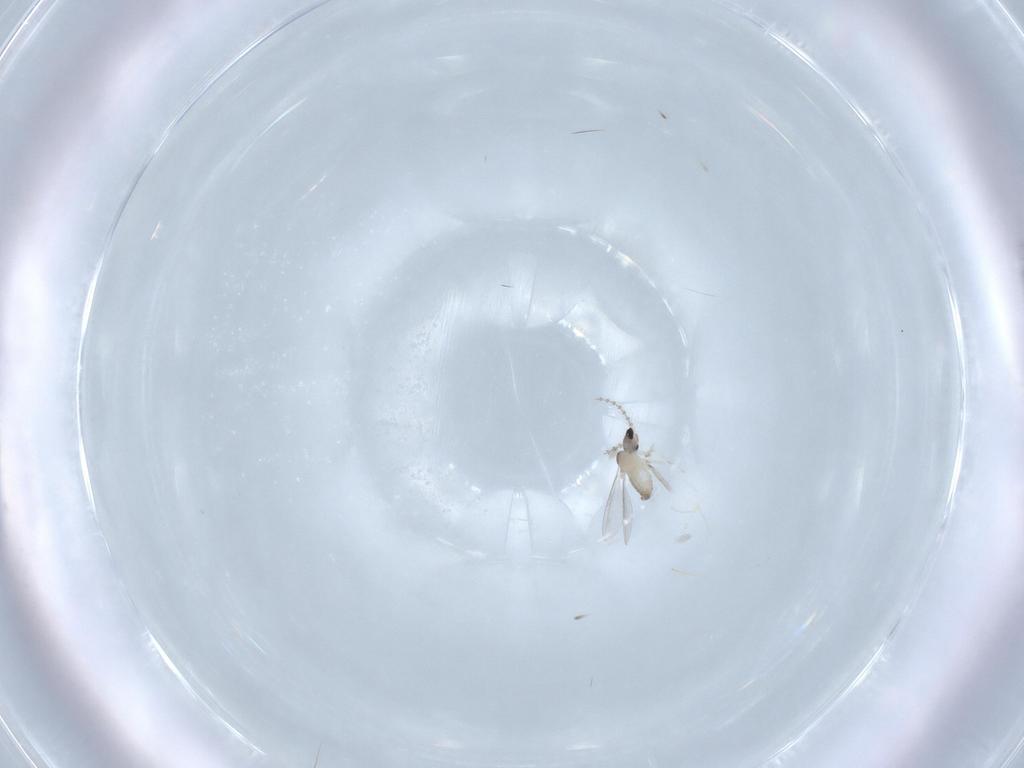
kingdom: Animalia
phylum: Arthropoda
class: Insecta
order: Diptera
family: Cecidomyiidae
